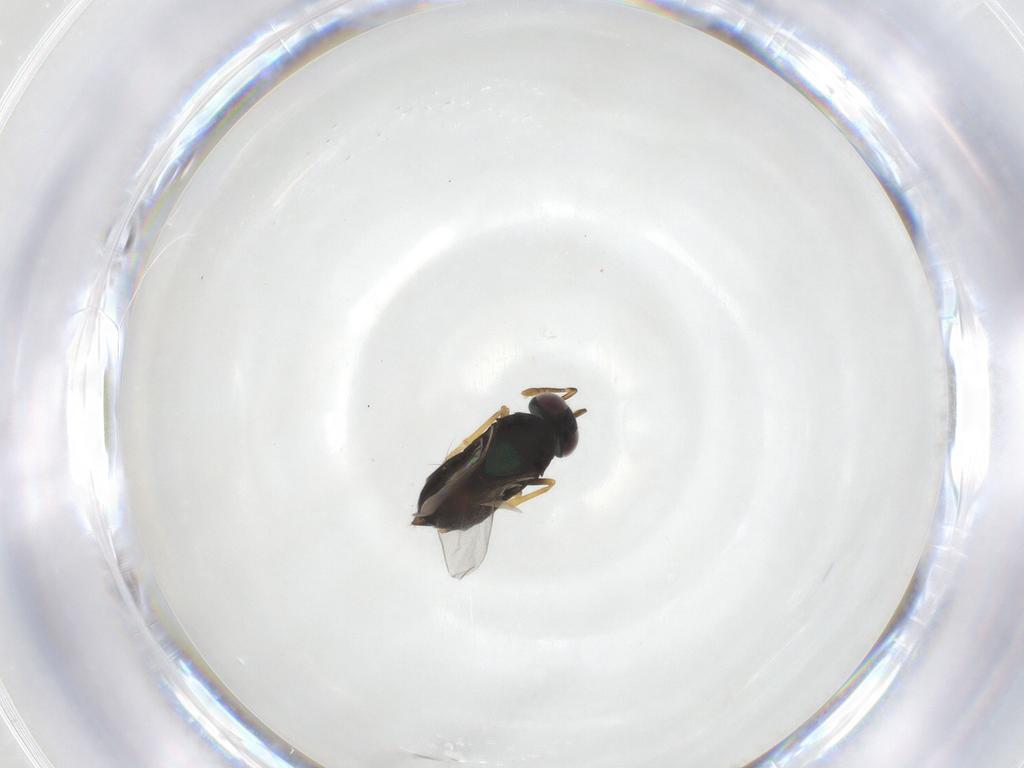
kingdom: Animalia
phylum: Arthropoda
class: Insecta
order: Hymenoptera
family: Encyrtidae
